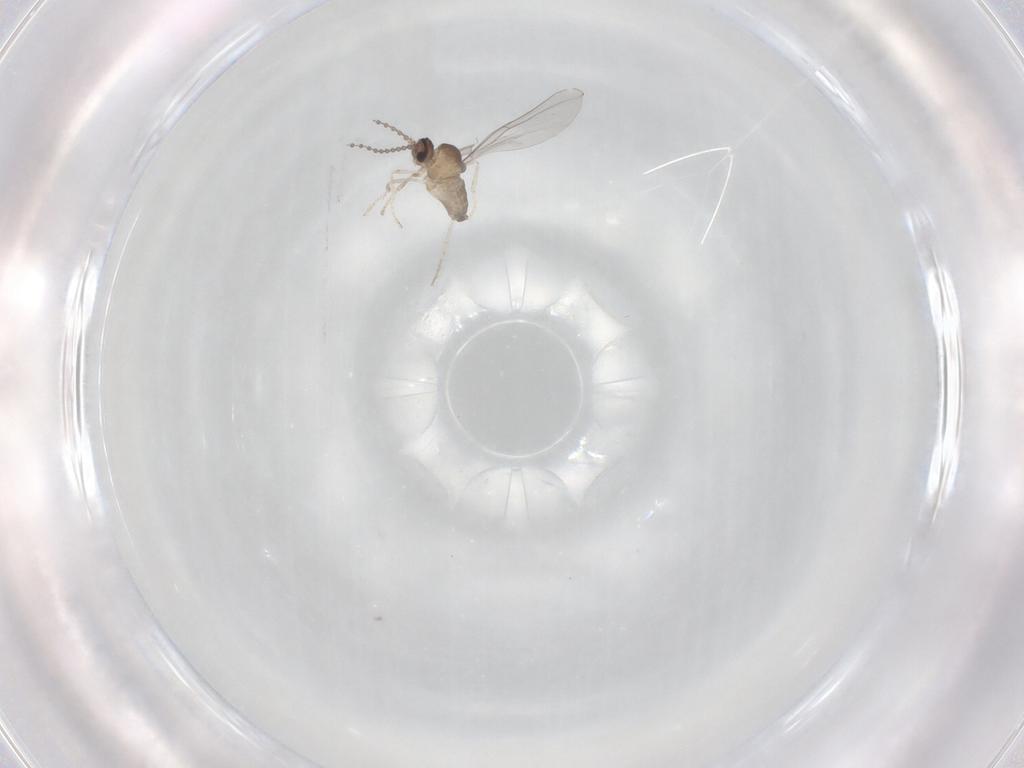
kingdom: Animalia
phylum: Arthropoda
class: Insecta
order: Diptera
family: Cecidomyiidae
